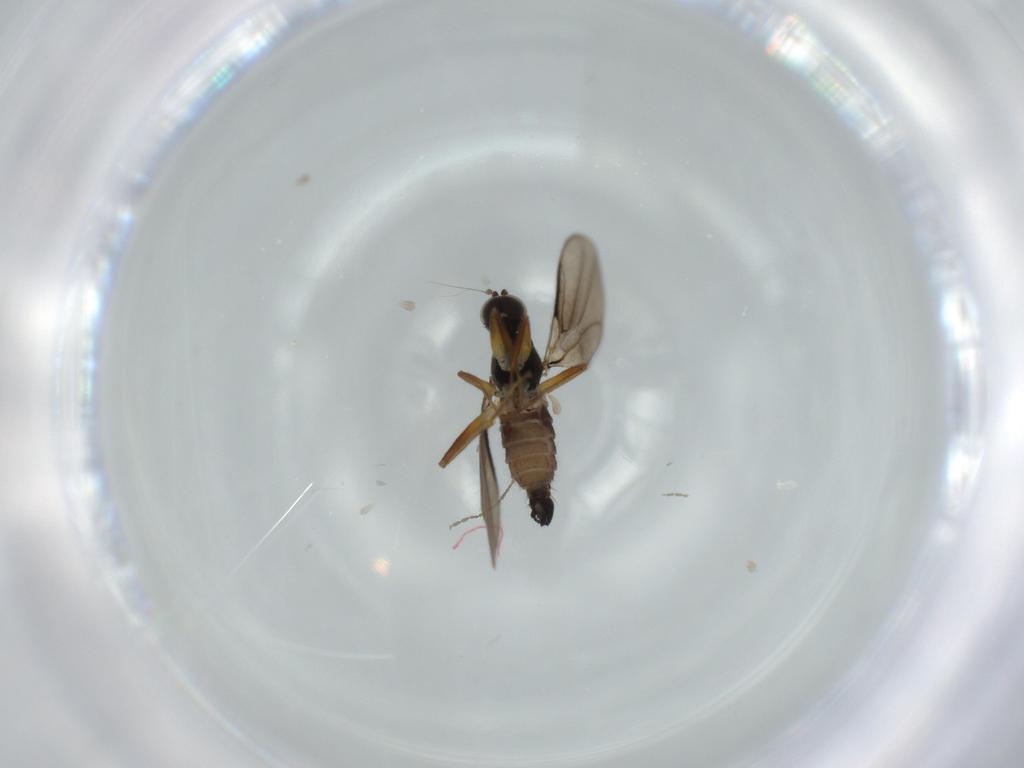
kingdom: Animalia
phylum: Arthropoda
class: Insecta
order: Diptera
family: Hybotidae
